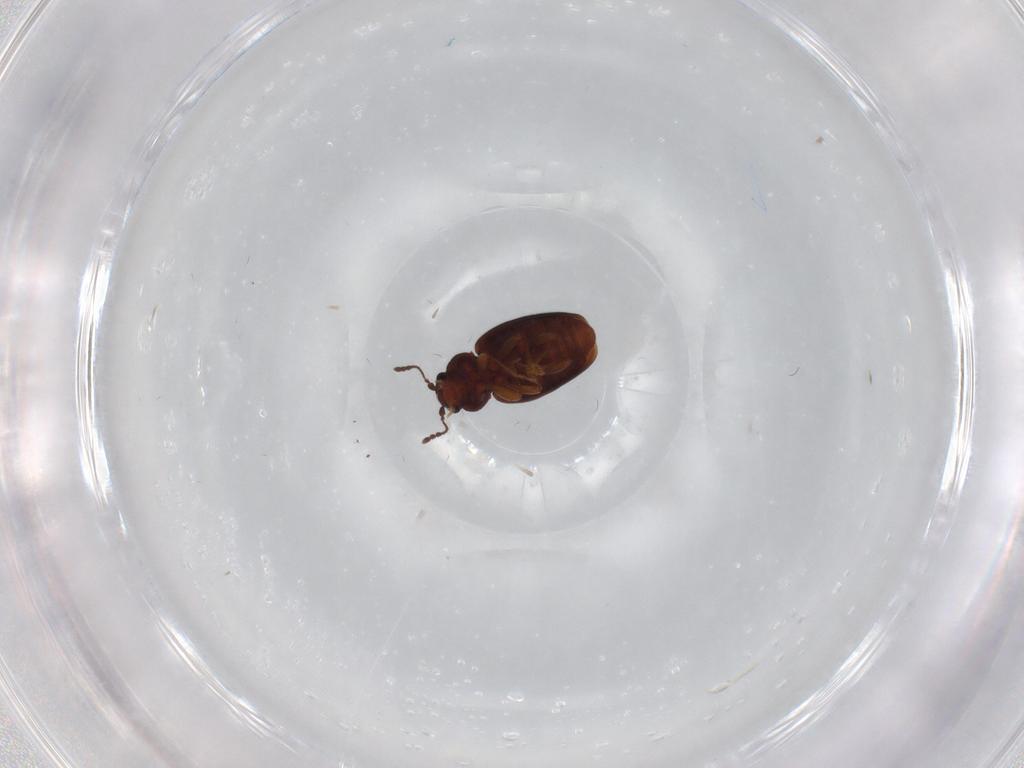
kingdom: Animalia
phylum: Arthropoda
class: Insecta
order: Coleoptera
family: Latridiidae
